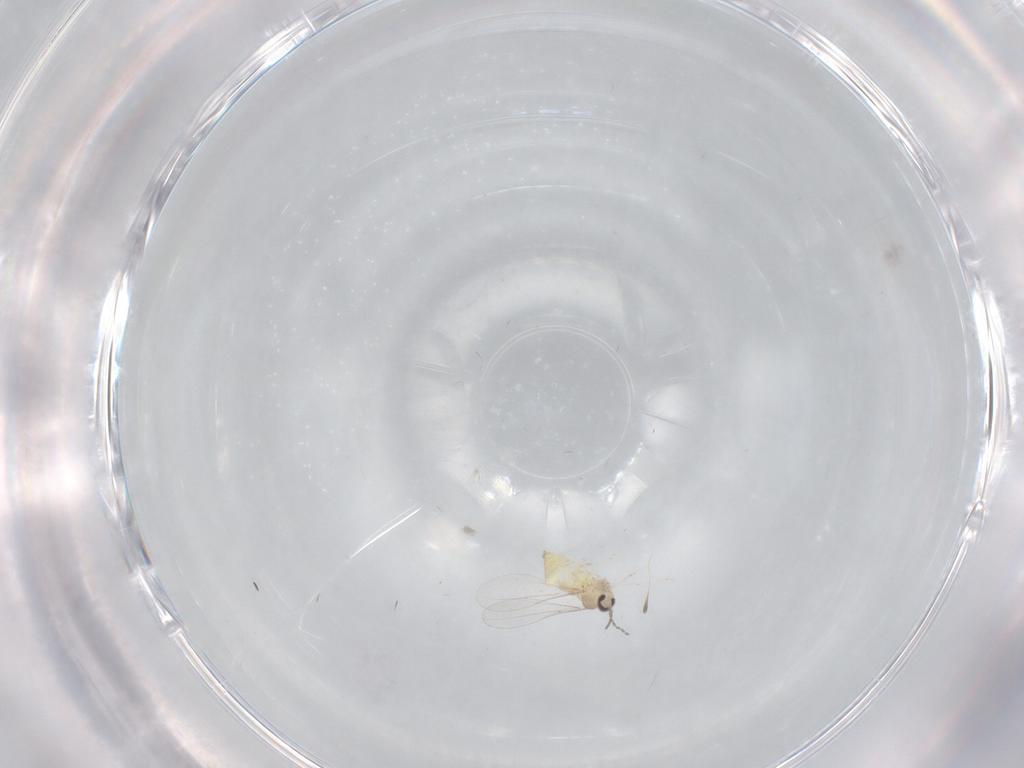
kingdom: Animalia
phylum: Arthropoda
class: Insecta
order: Diptera
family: Cecidomyiidae
